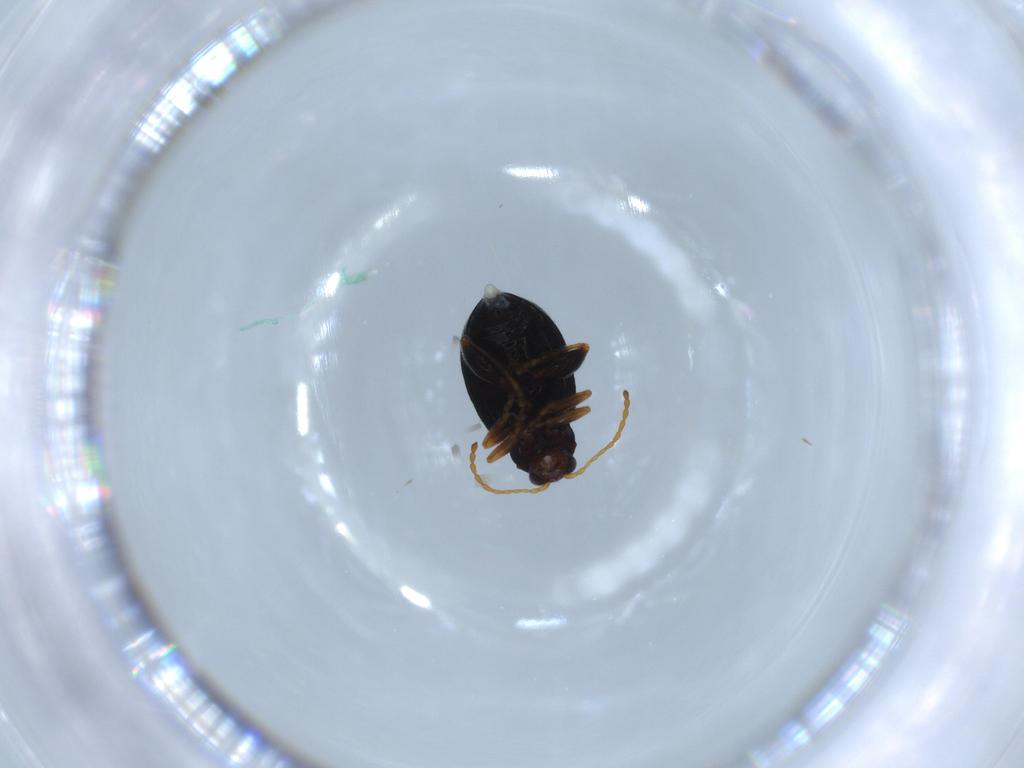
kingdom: Animalia
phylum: Arthropoda
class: Insecta
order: Coleoptera
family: Chrysomelidae
